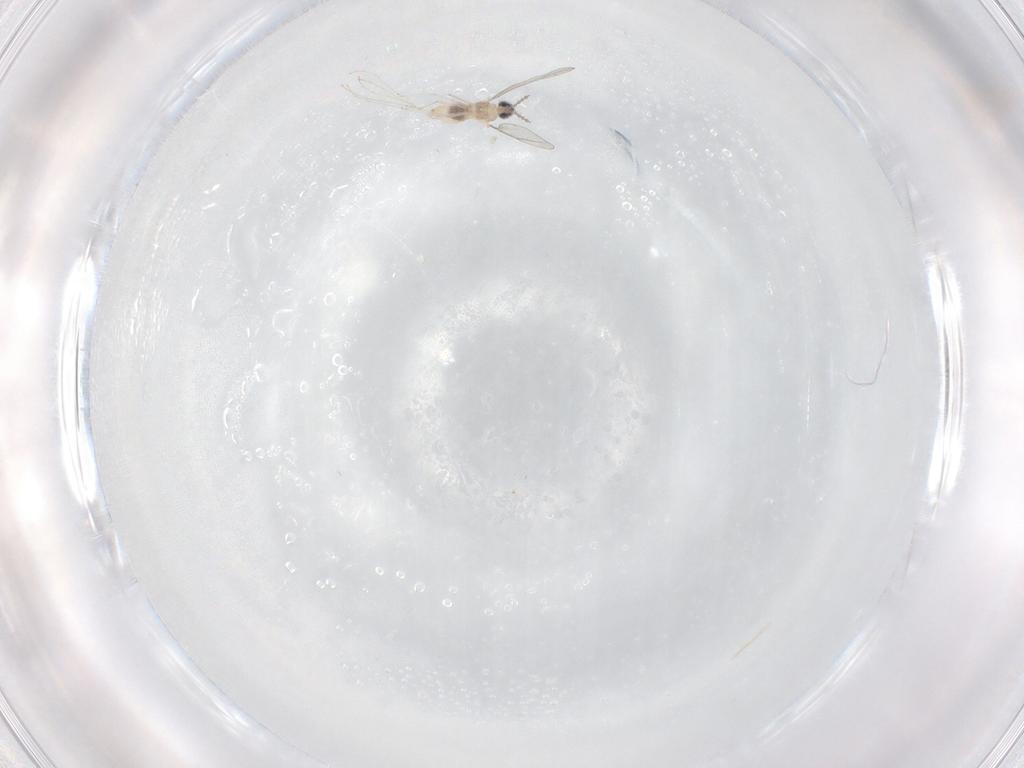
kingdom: Animalia
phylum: Arthropoda
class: Insecta
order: Diptera
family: Cecidomyiidae
